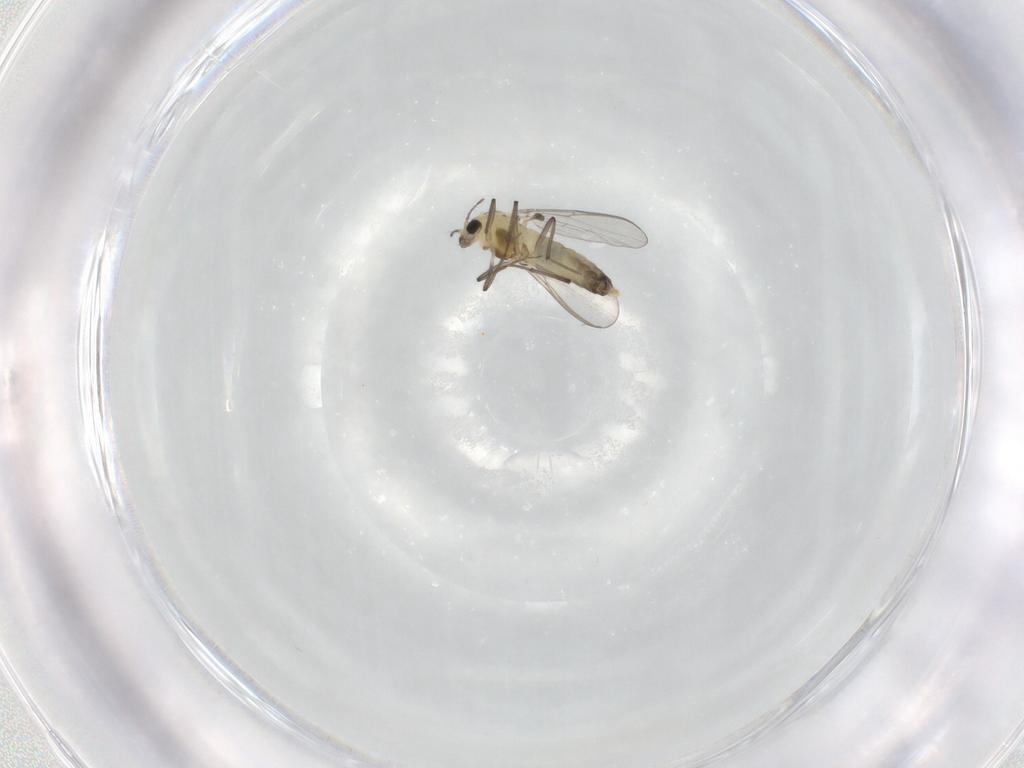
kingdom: Animalia
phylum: Arthropoda
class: Insecta
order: Diptera
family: Chironomidae
